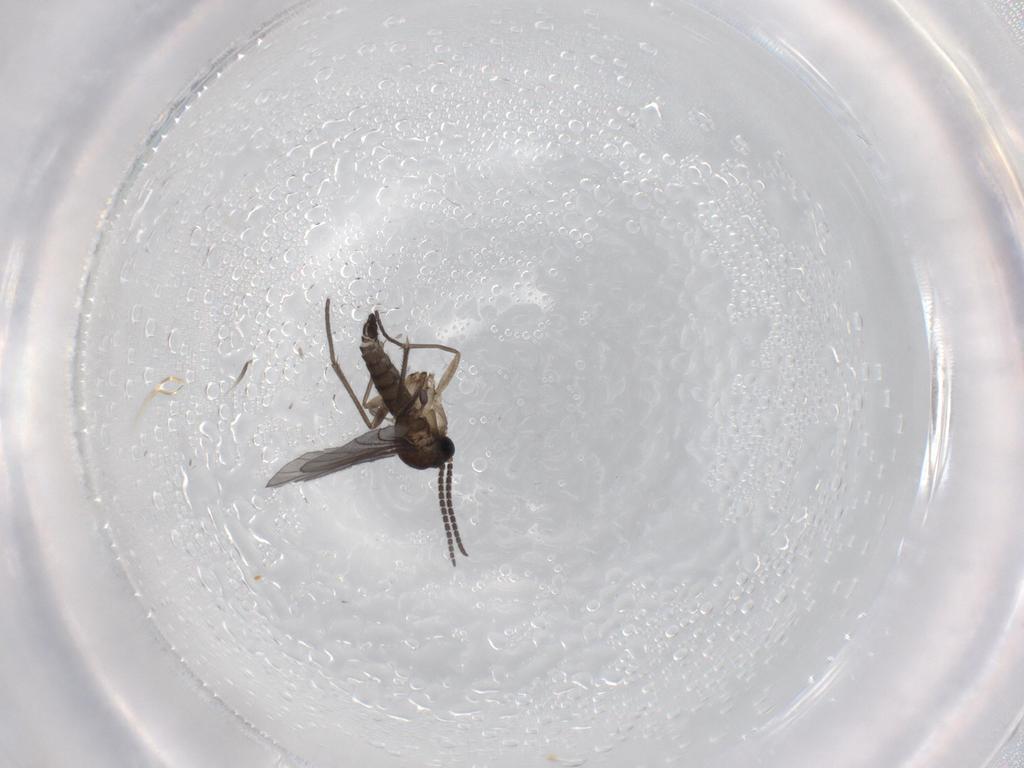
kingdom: Animalia
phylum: Arthropoda
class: Insecta
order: Diptera
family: Sciaridae
